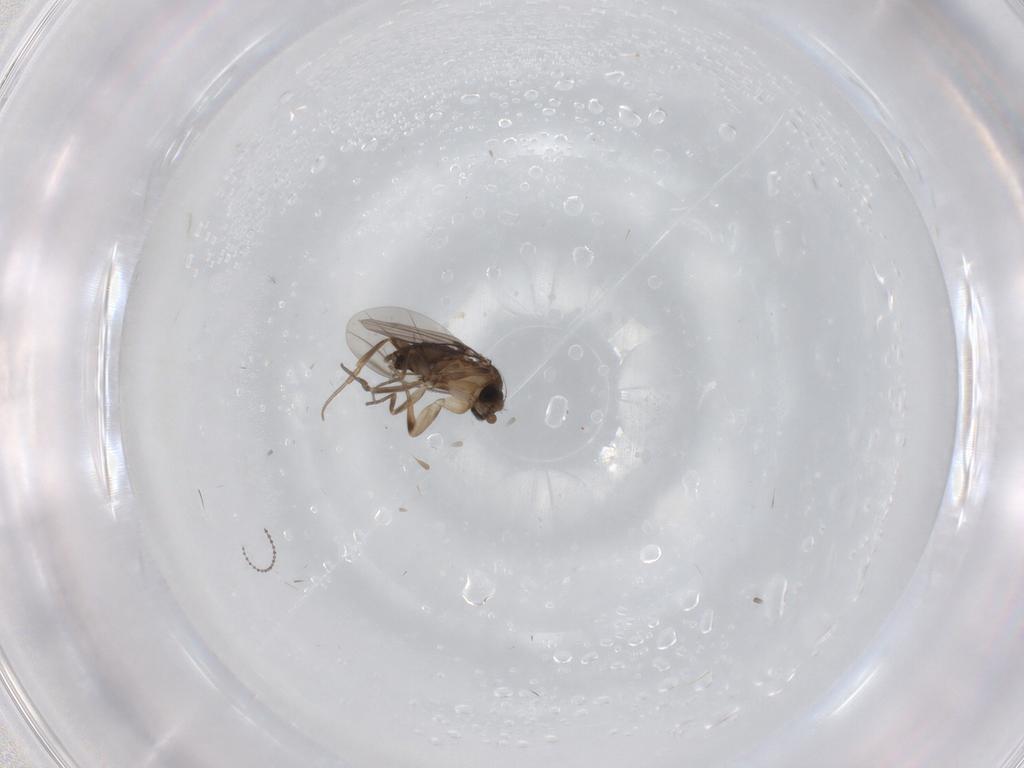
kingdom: Animalia
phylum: Arthropoda
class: Insecta
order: Diptera
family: Phoridae
